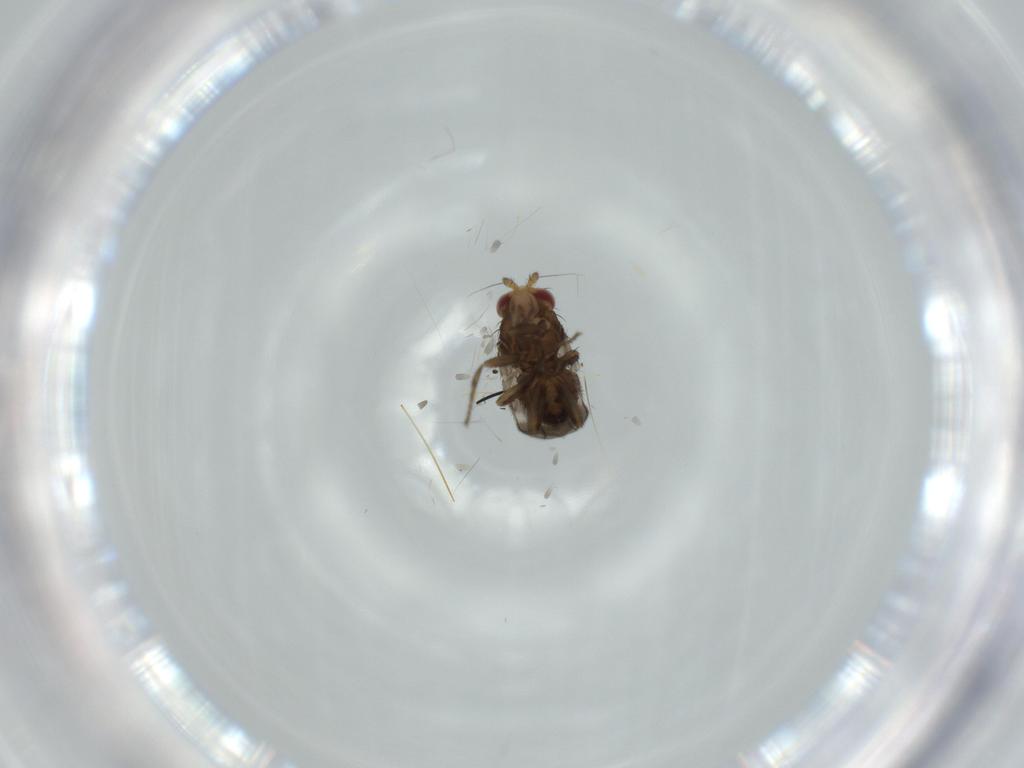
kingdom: Animalia
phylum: Arthropoda
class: Insecta
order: Diptera
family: Sphaeroceridae
